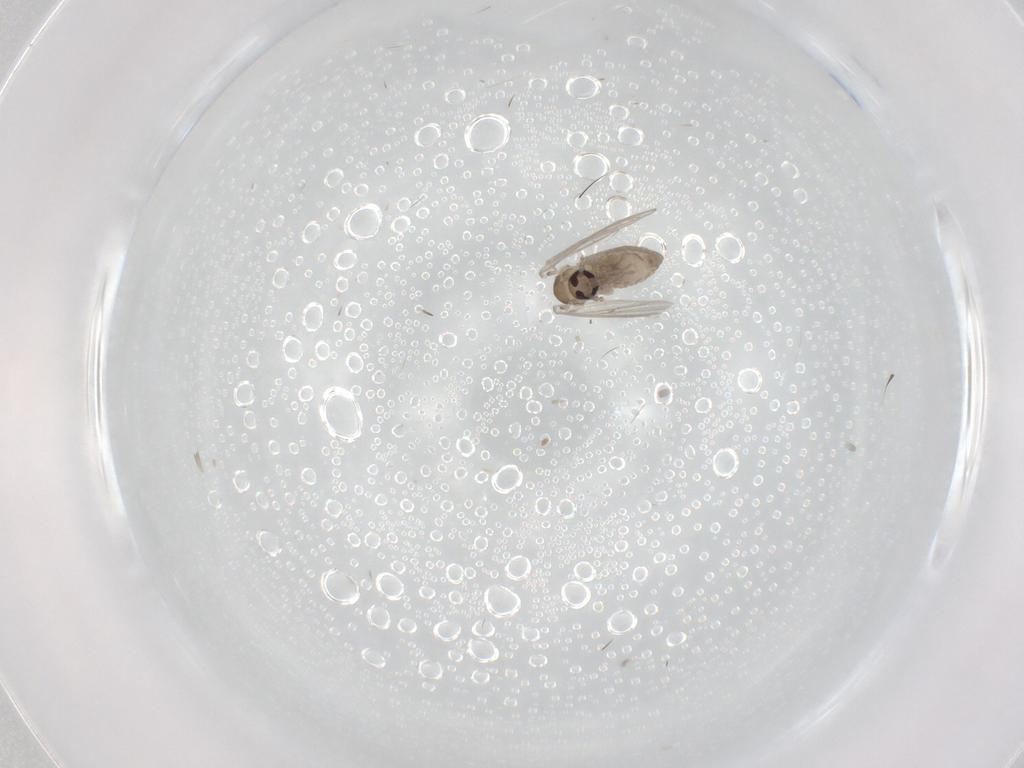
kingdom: Animalia
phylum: Arthropoda
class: Insecta
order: Diptera
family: Psychodidae
